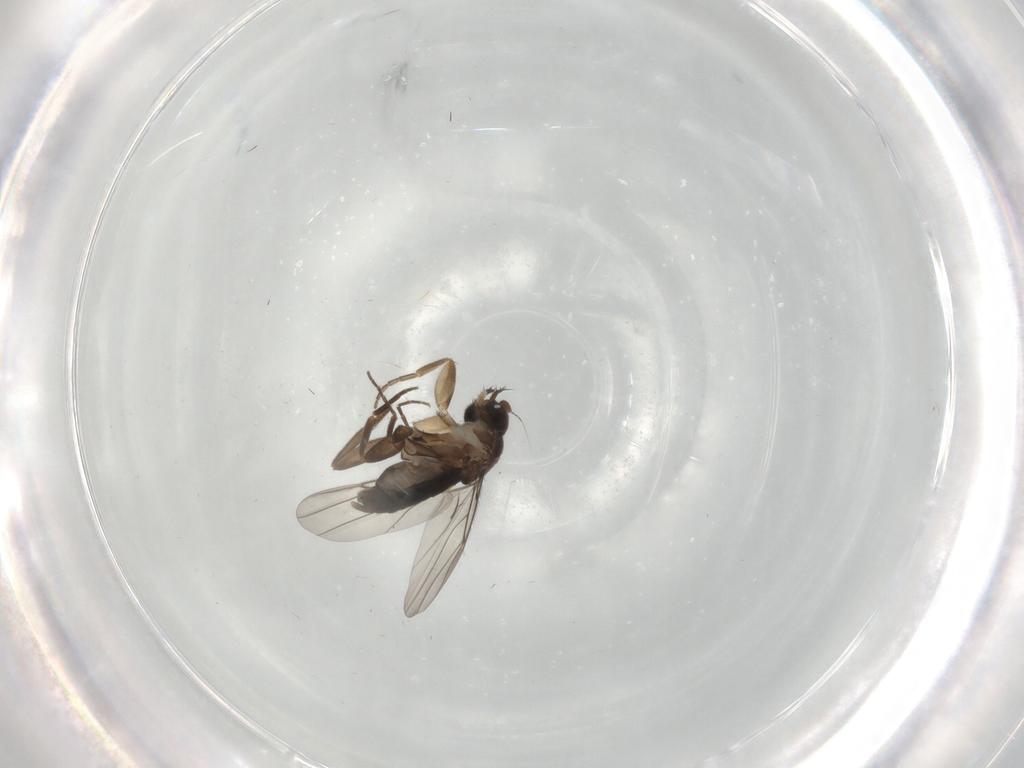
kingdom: Animalia
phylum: Arthropoda
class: Insecta
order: Diptera
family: Phoridae
